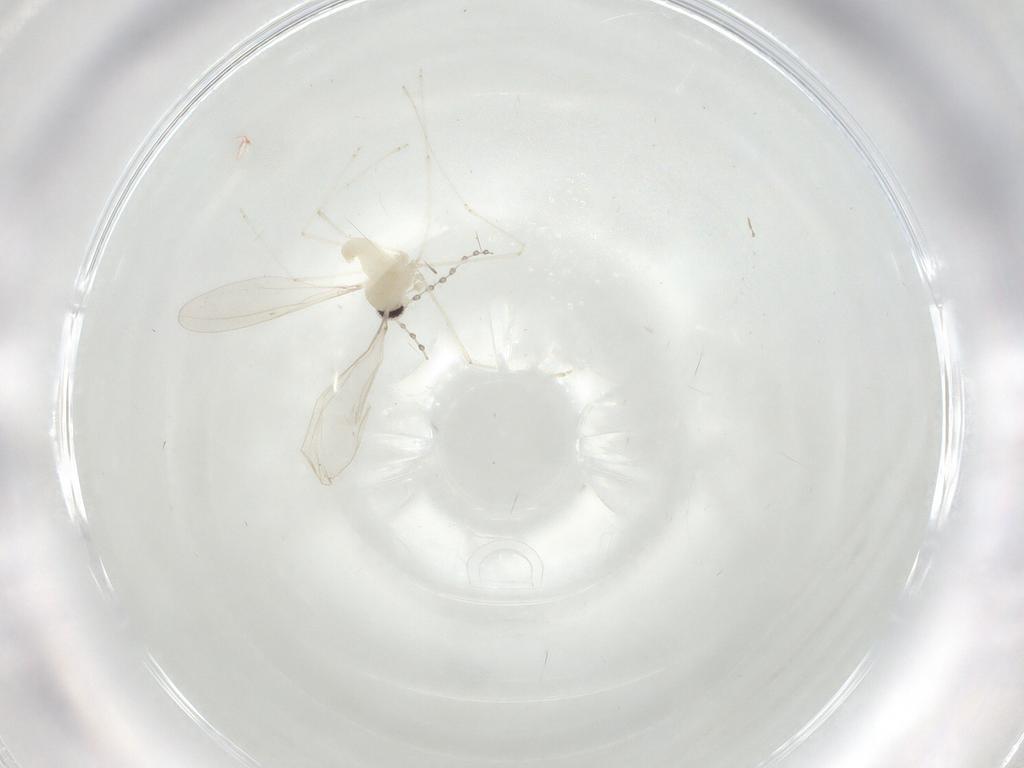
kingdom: Animalia
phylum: Arthropoda
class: Insecta
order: Diptera
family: Cecidomyiidae
